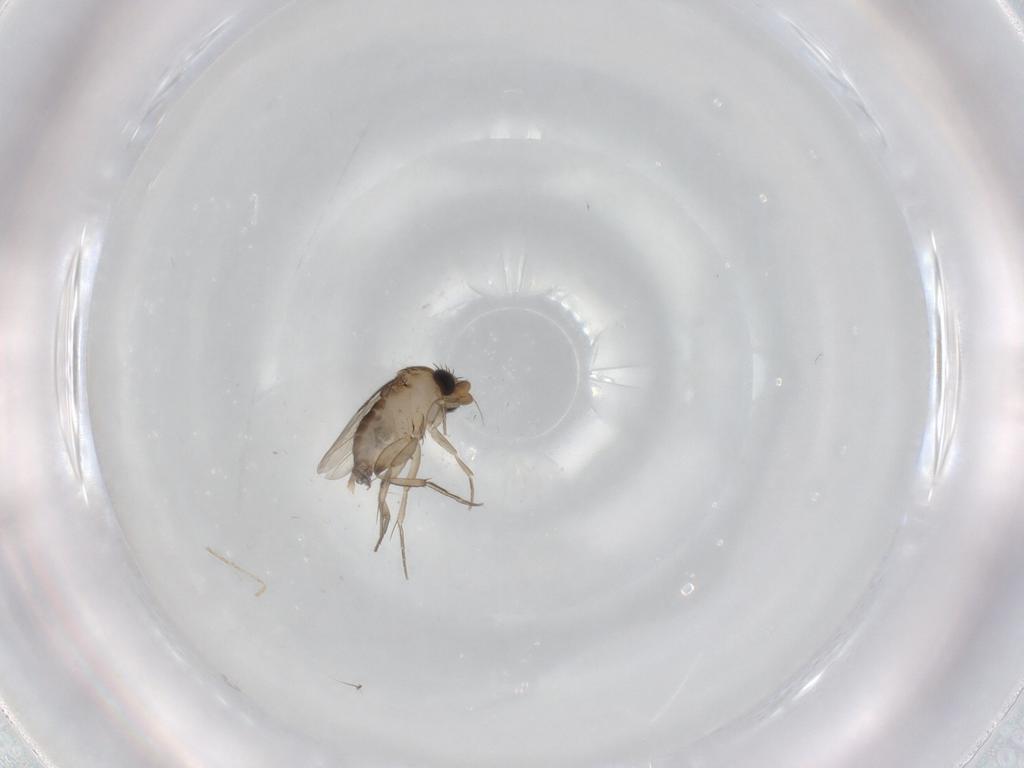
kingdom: Animalia
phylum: Arthropoda
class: Insecta
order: Diptera
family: Phoridae
